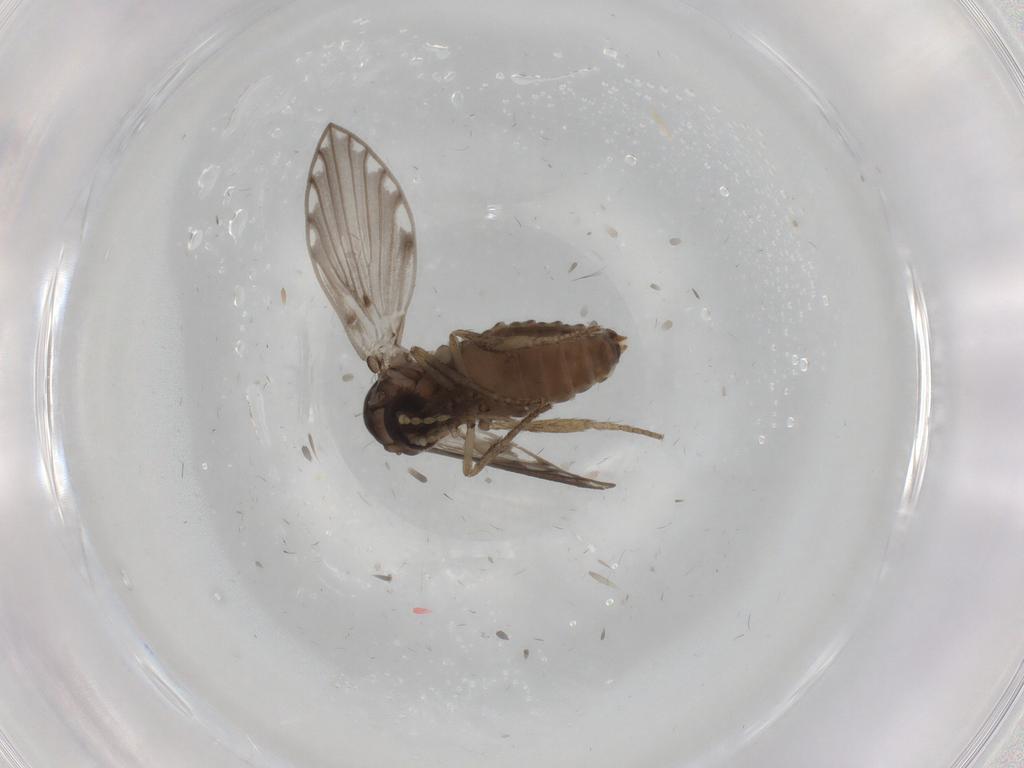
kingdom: Animalia
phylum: Arthropoda
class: Insecta
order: Diptera
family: Psychodidae
